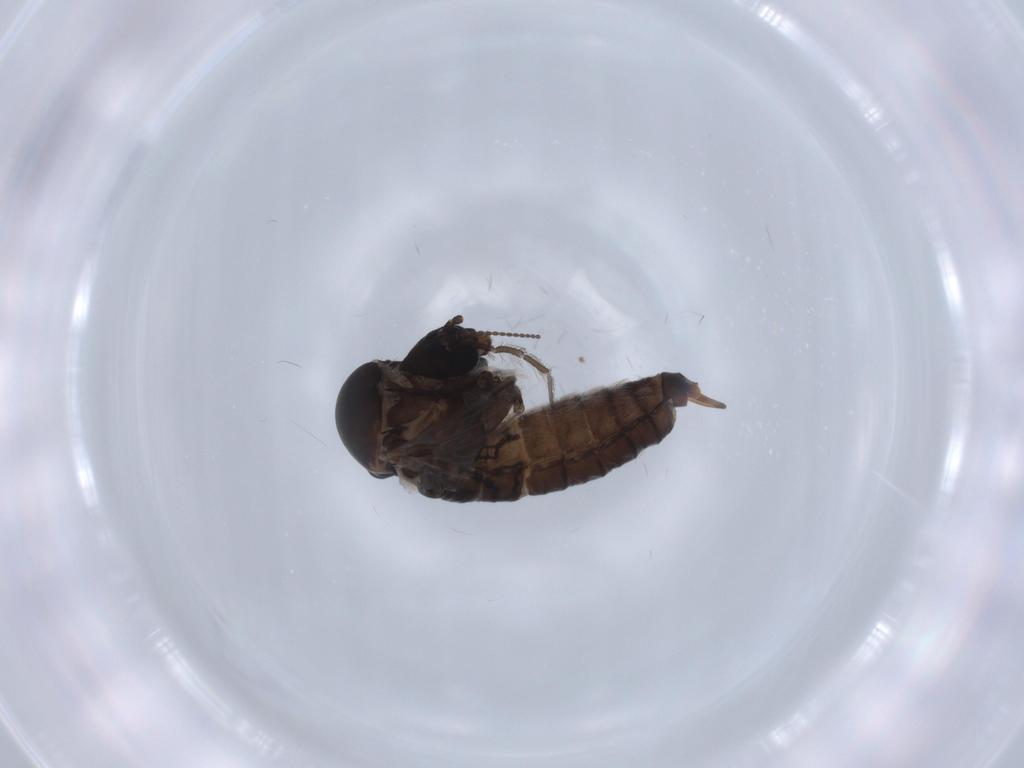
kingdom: Animalia
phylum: Arthropoda
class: Insecta
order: Diptera
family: Psychodidae
